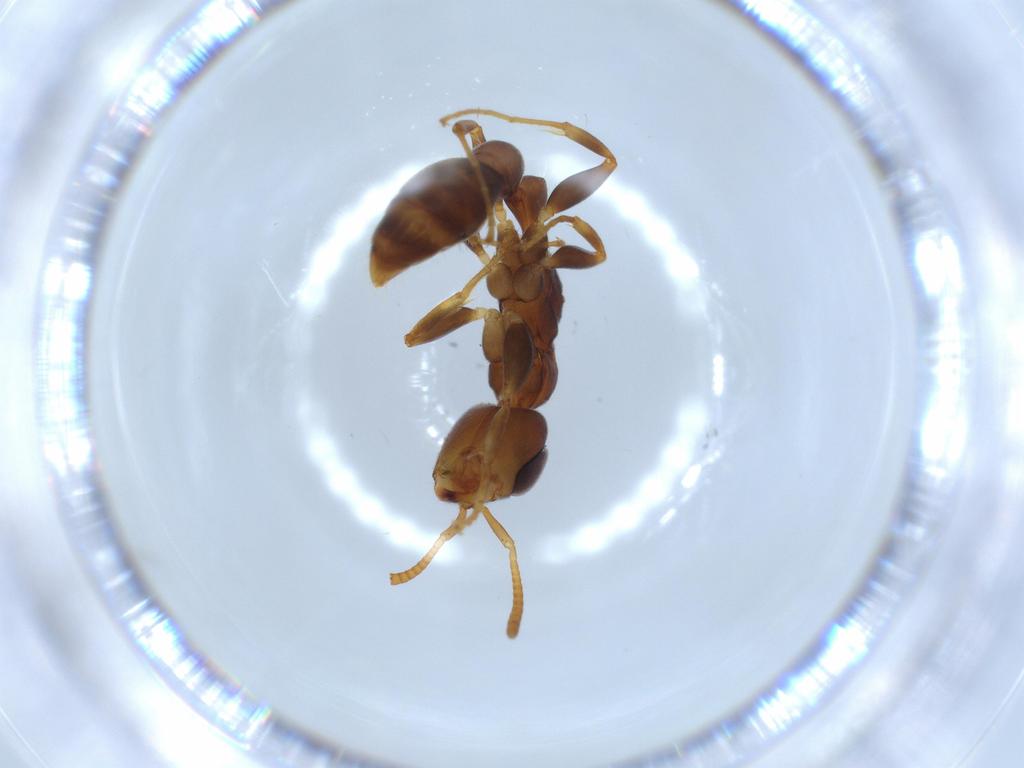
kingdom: Animalia
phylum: Arthropoda
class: Insecta
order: Hymenoptera
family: Formicidae
